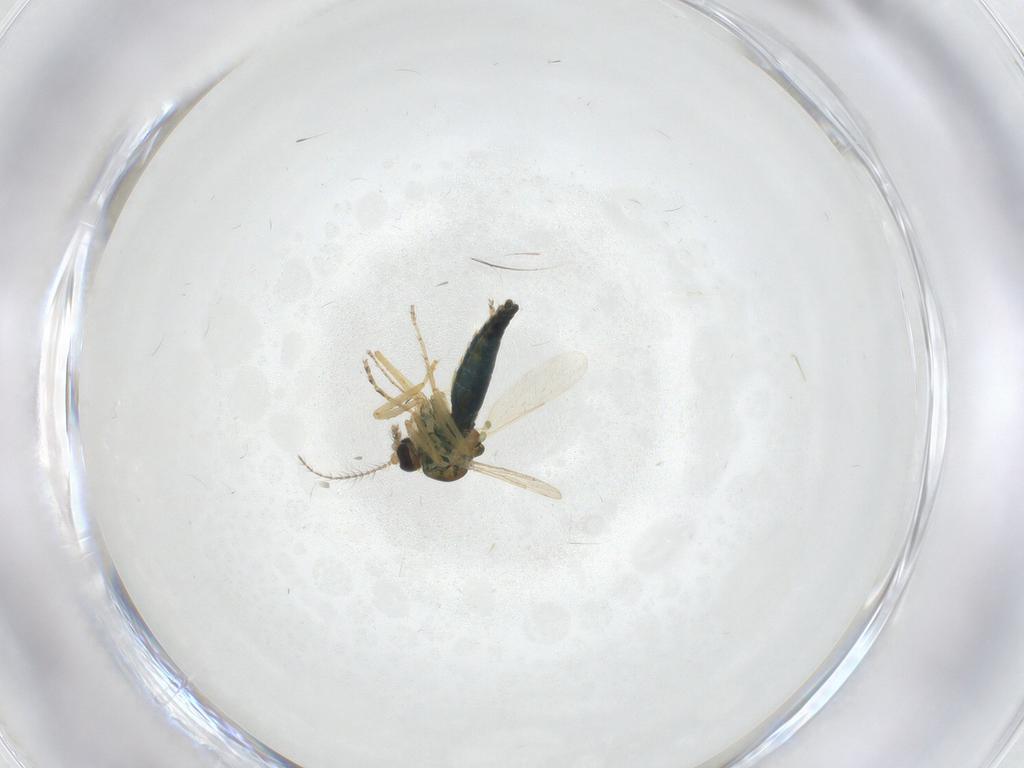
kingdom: Animalia
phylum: Arthropoda
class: Insecta
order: Diptera
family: Ceratopogonidae
